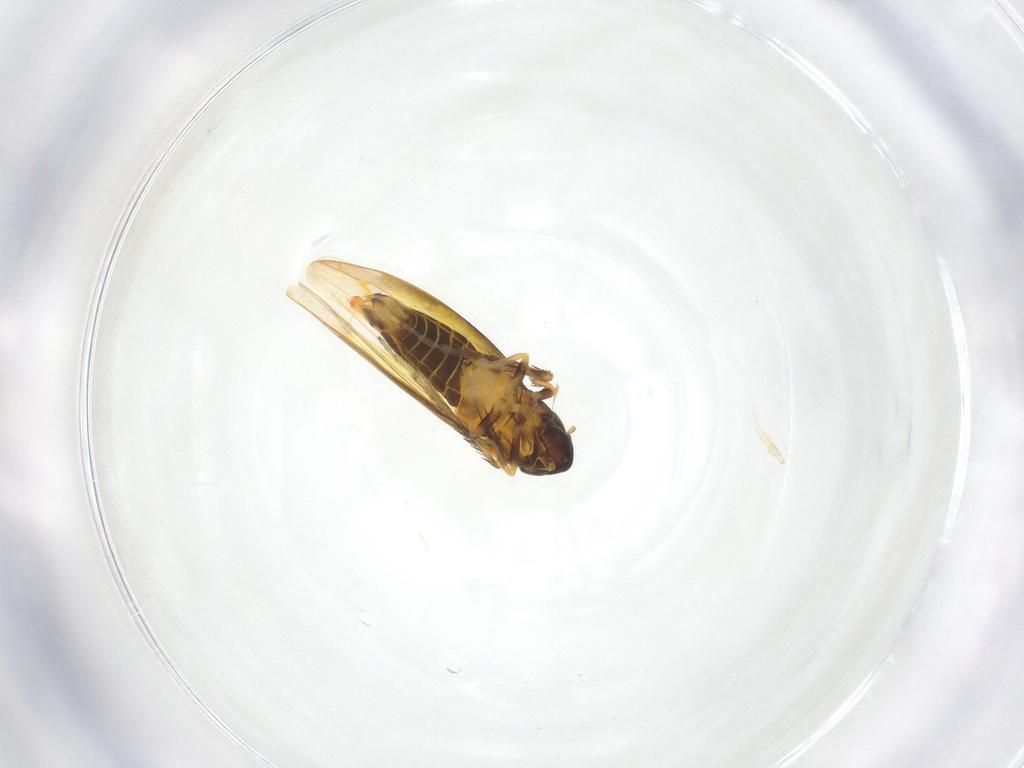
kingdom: Animalia
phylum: Arthropoda
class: Insecta
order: Hemiptera
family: Cicadellidae
